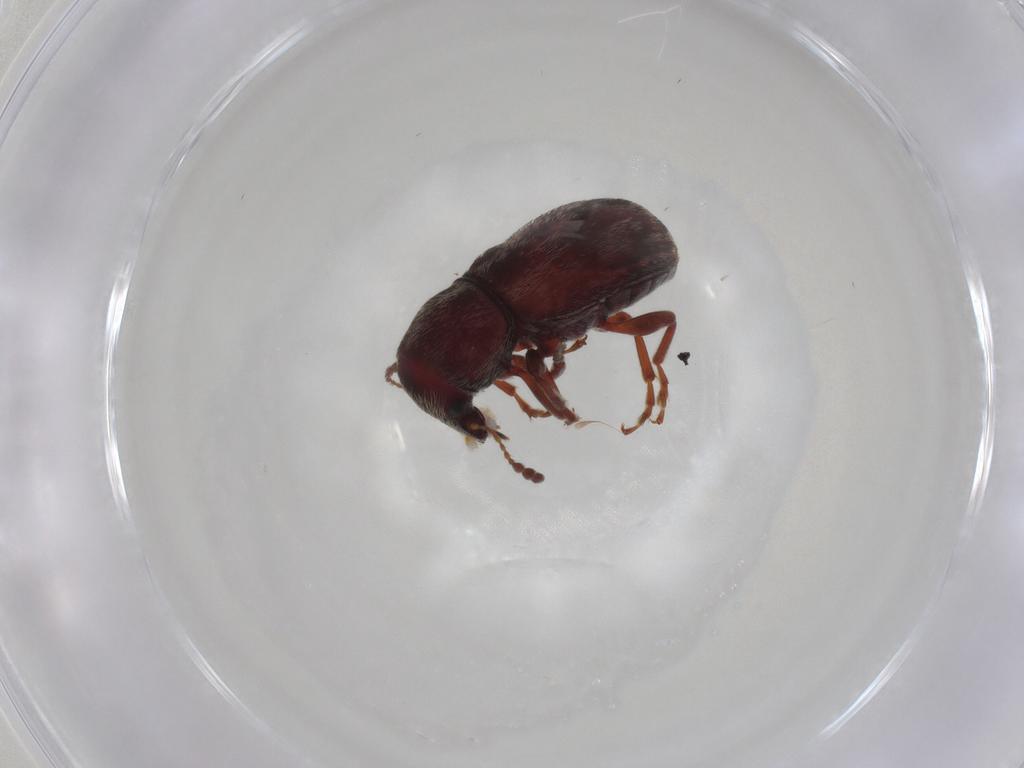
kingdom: Animalia
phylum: Arthropoda
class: Insecta
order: Coleoptera
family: Anthribidae
